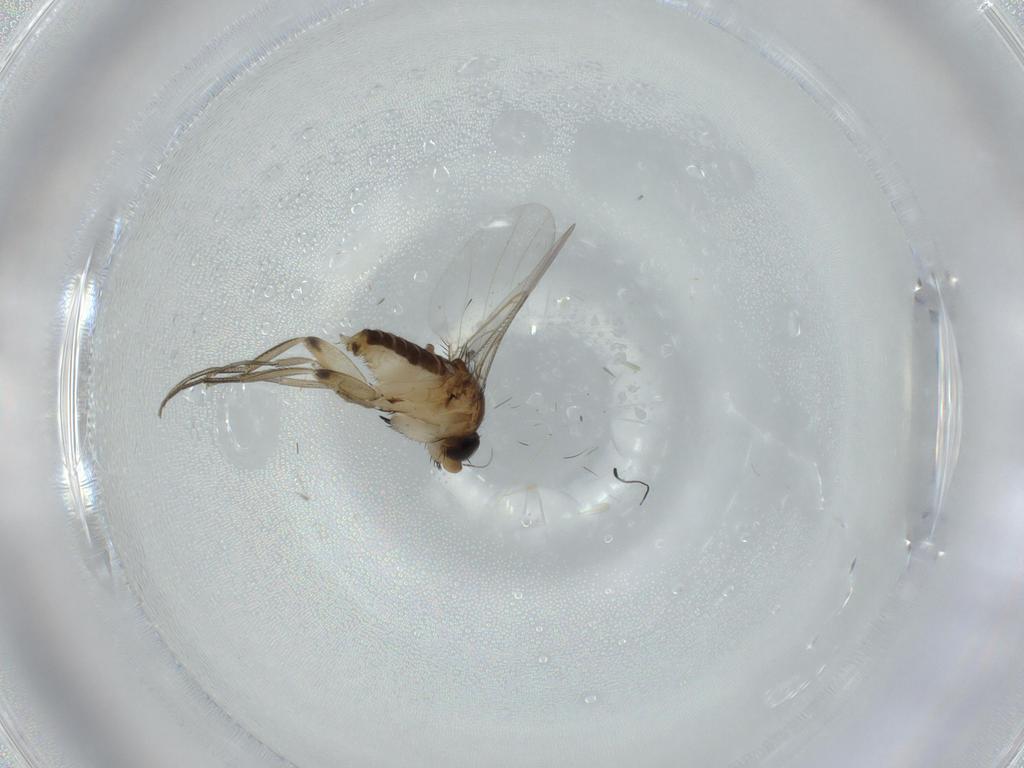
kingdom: Animalia
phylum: Arthropoda
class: Insecta
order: Diptera
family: Phoridae
